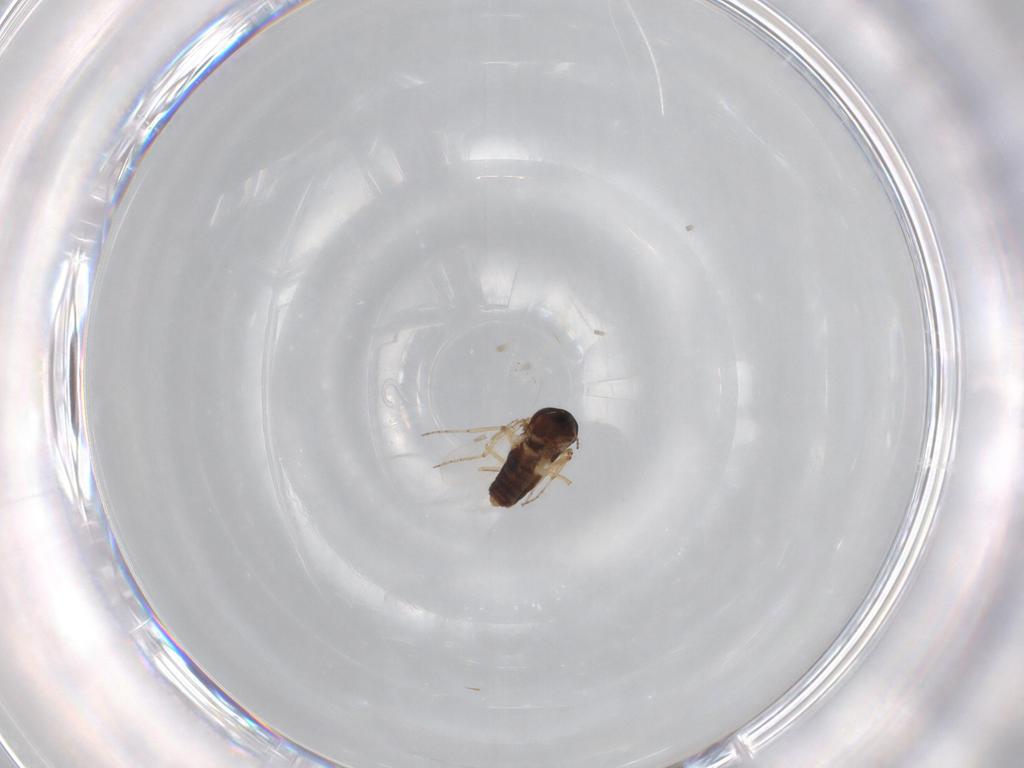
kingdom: Animalia
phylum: Arthropoda
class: Insecta
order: Diptera
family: Ceratopogonidae
